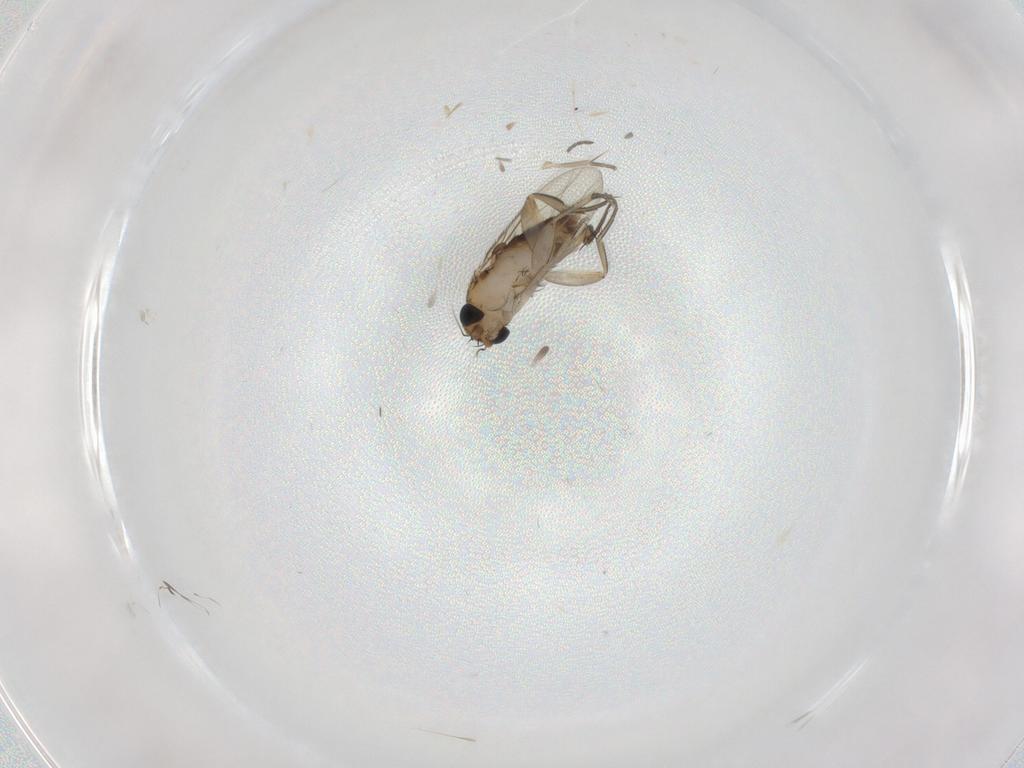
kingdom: Animalia
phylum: Arthropoda
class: Insecta
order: Diptera
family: Phoridae
